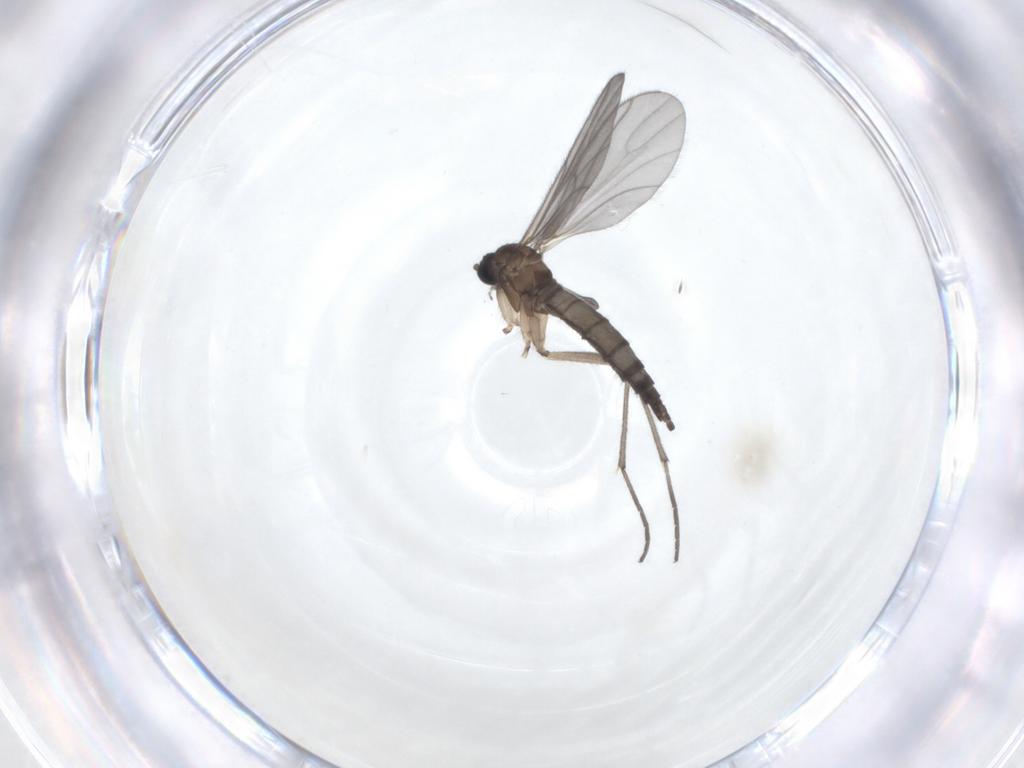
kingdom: Animalia
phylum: Arthropoda
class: Insecta
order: Diptera
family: Sciaridae
